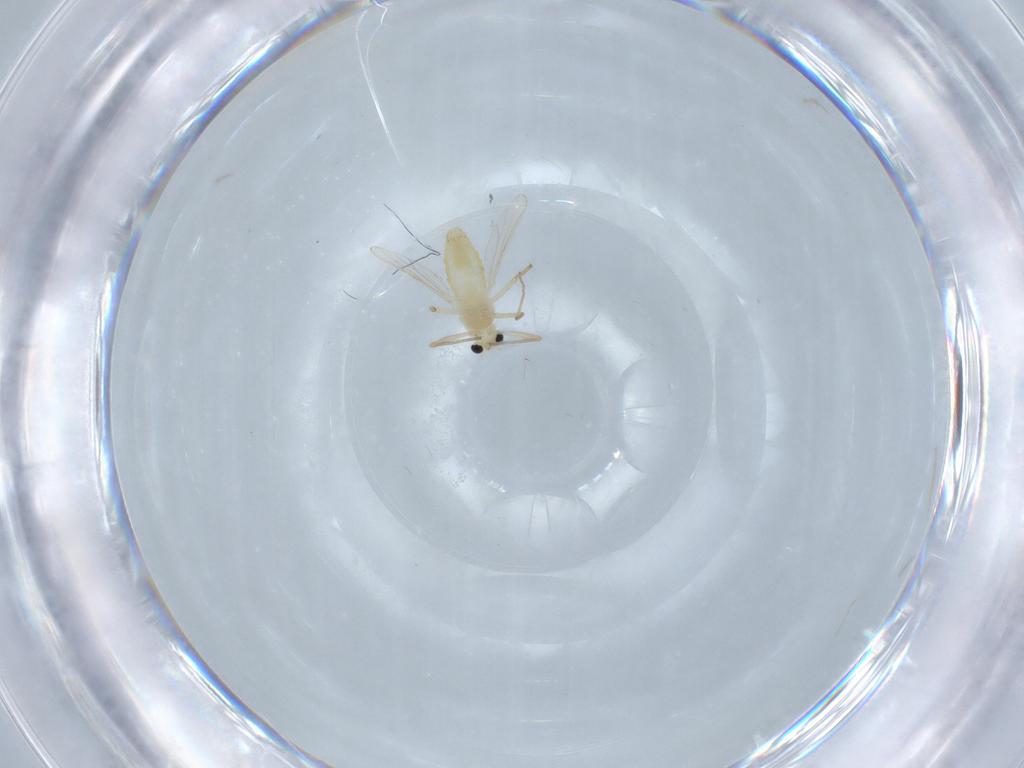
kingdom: Animalia
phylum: Arthropoda
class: Insecta
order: Diptera
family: Chironomidae
